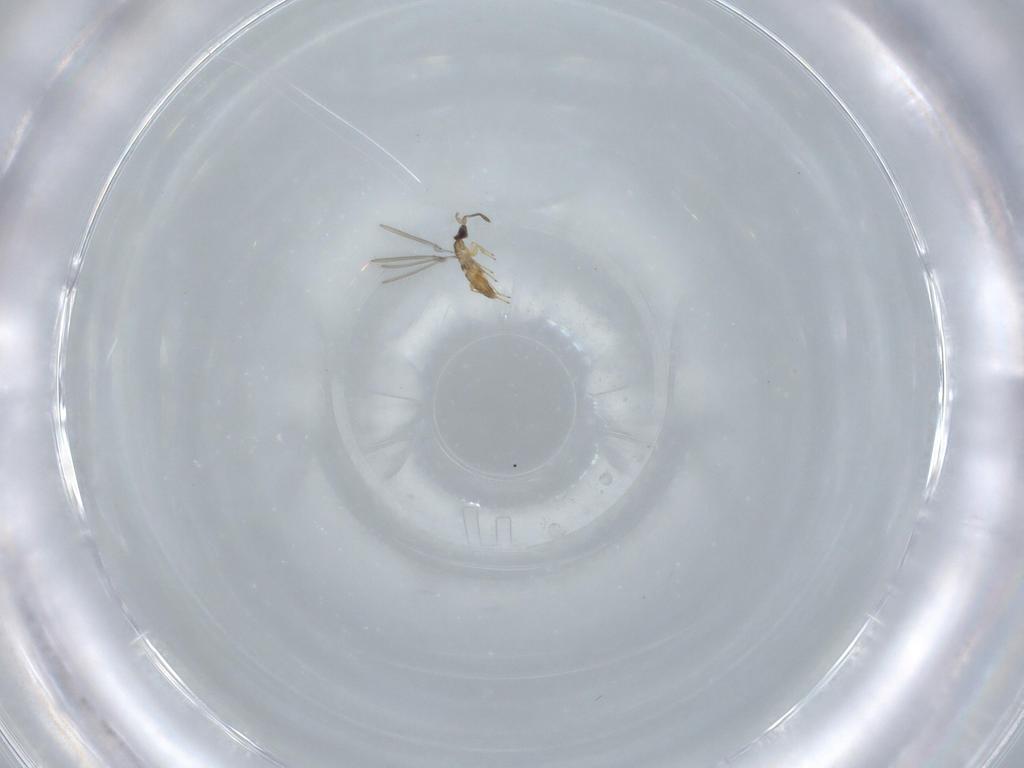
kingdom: Animalia
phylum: Arthropoda
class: Insecta
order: Hymenoptera
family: Mymaridae
